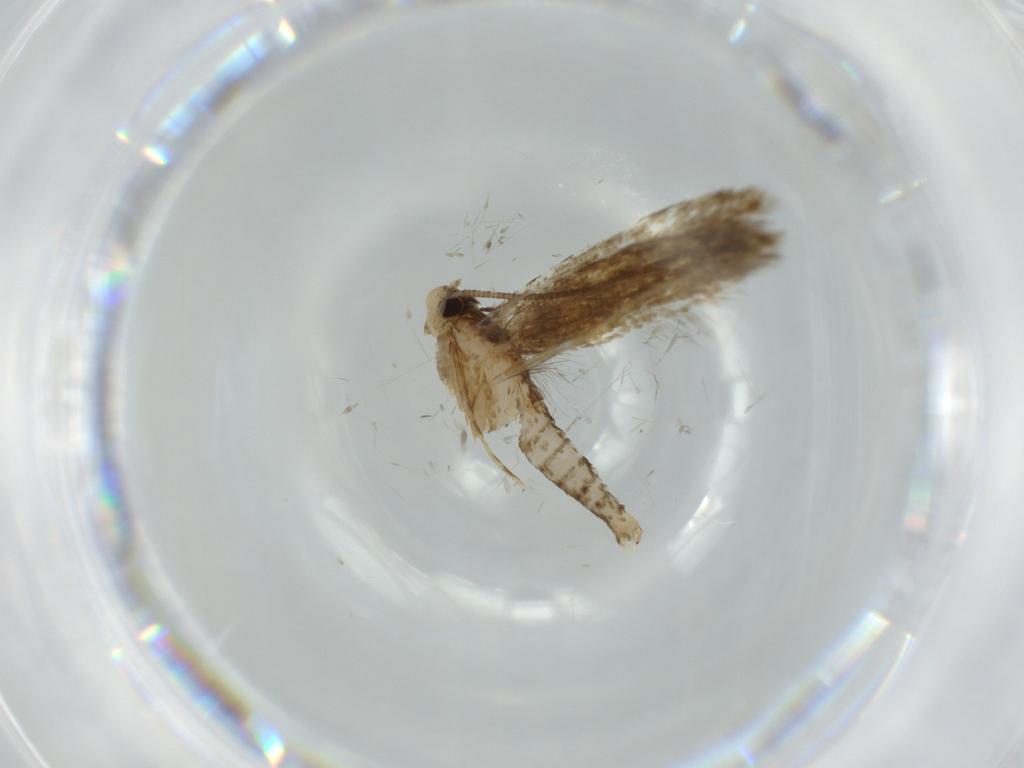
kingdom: Animalia
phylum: Arthropoda
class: Insecta
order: Lepidoptera
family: Tineidae
